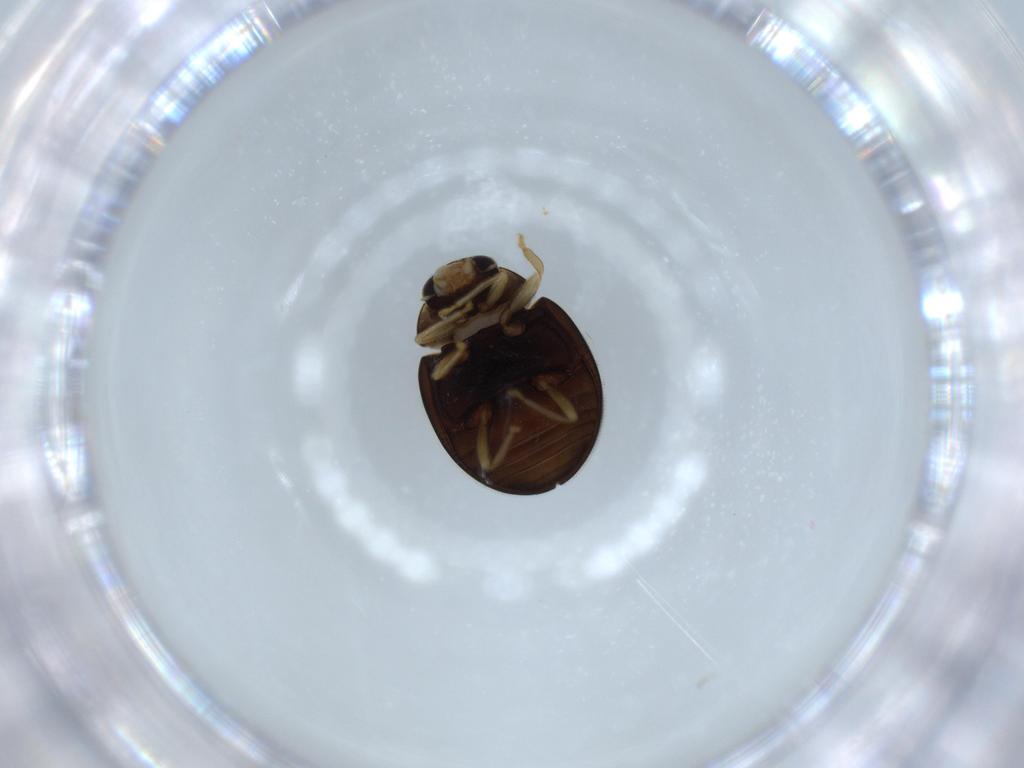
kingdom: Animalia
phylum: Arthropoda
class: Insecta
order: Coleoptera
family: Coccinellidae
